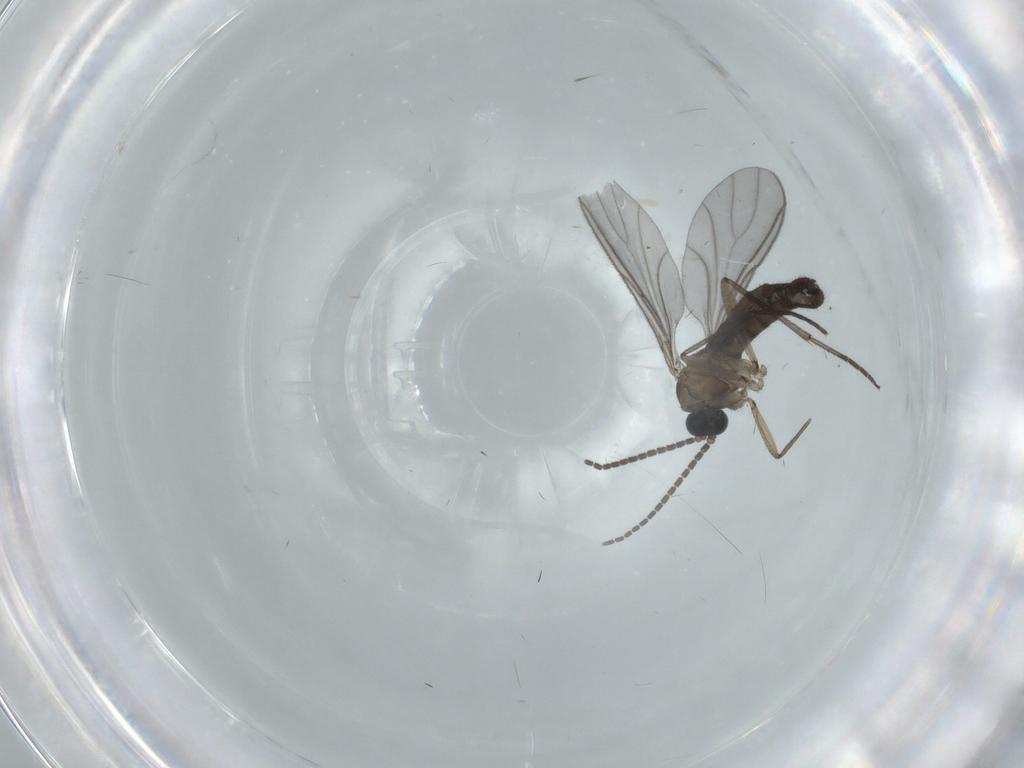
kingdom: Animalia
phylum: Arthropoda
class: Insecta
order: Diptera
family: Sciaridae
